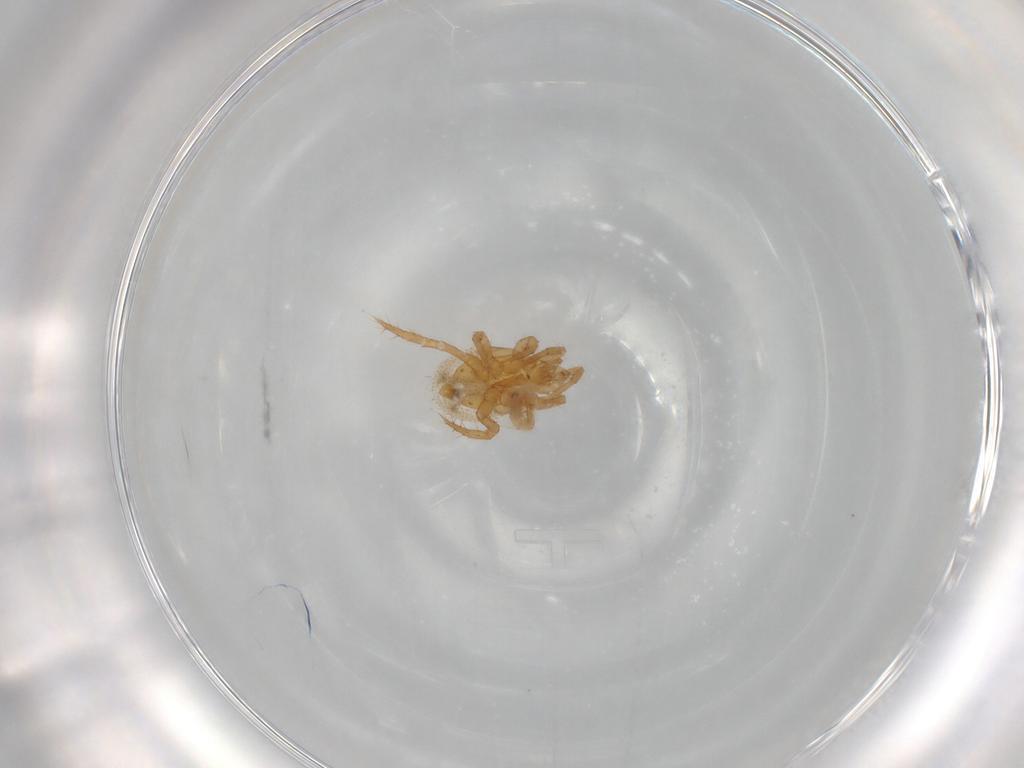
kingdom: Animalia
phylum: Arthropoda
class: Arachnida
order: Mesostigmata
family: Parasitidae
